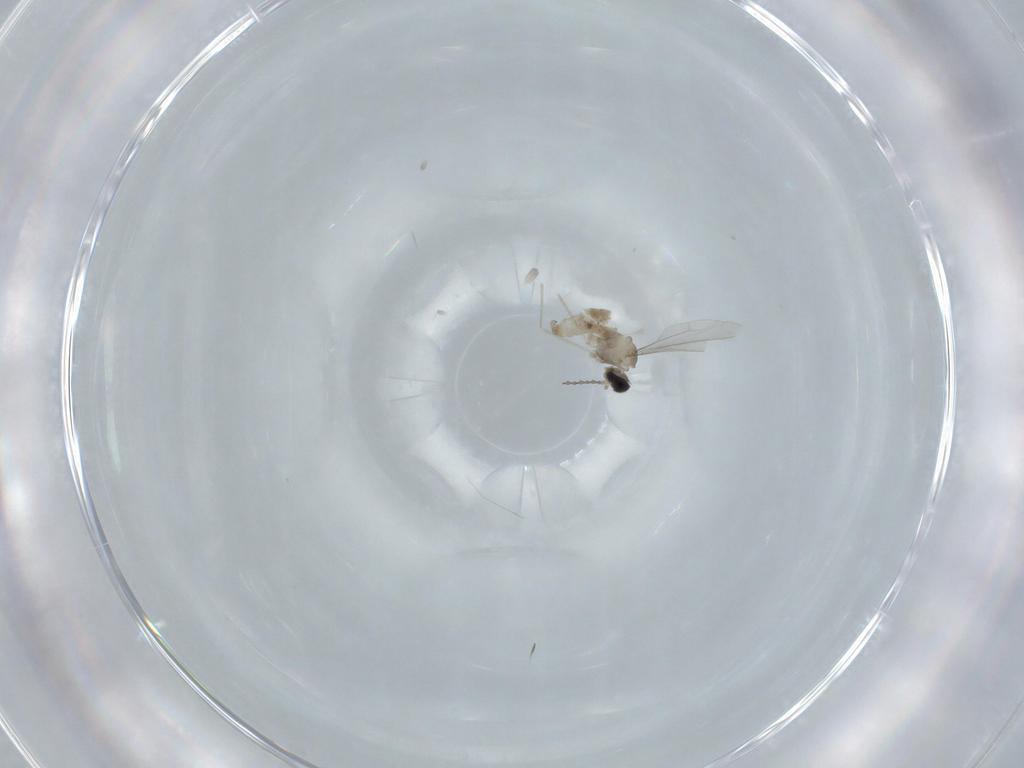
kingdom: Animalia
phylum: Arthropoda
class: Insecta
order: Diptera
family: Cecidomyiidae
